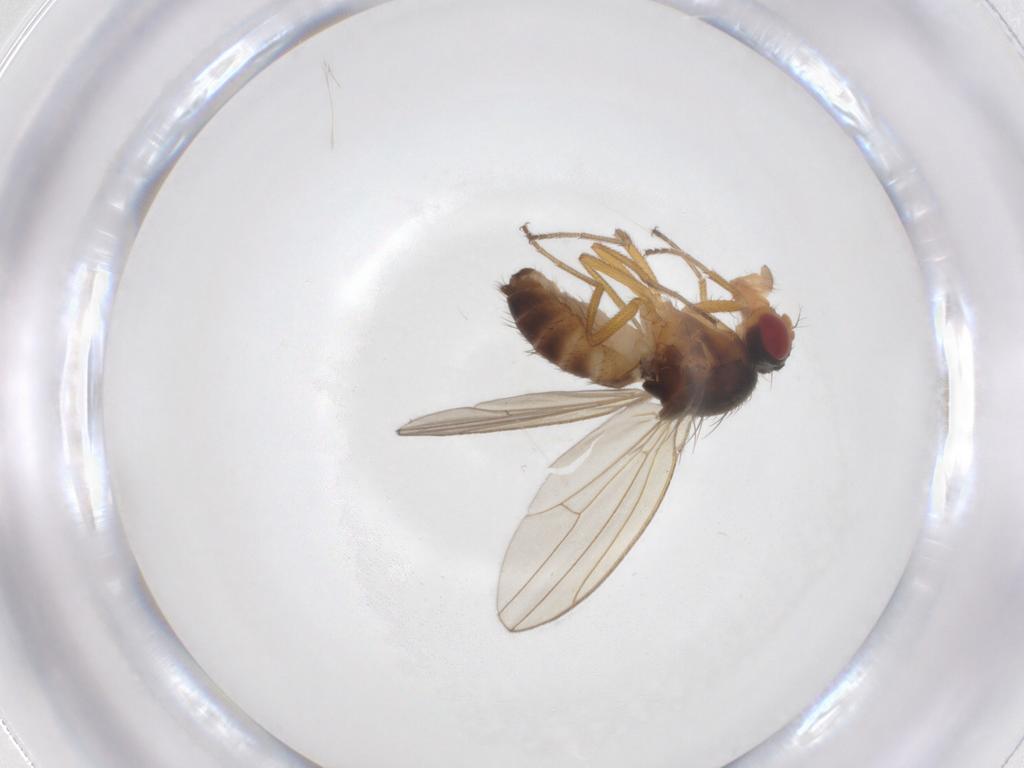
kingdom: Animalia
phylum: Arthropoda
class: Insecta
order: Diptera
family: Drosophilidae
